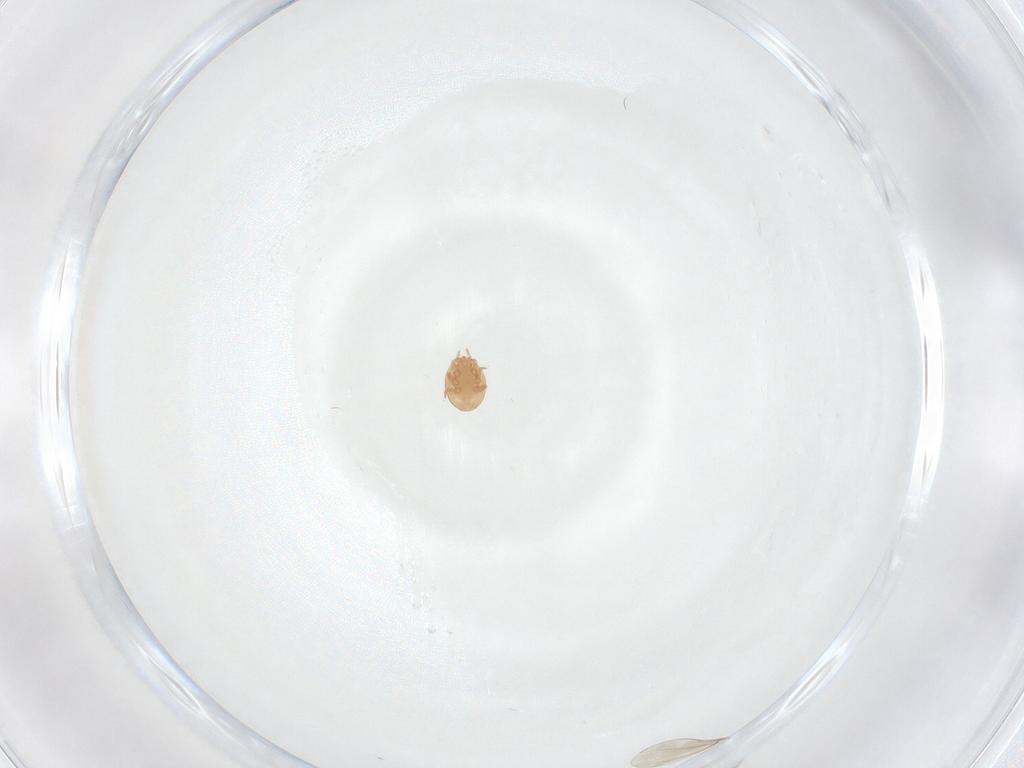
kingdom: Animalia
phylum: Arthropoda
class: Arachnida
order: Mesostigmata
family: Trematuridae
